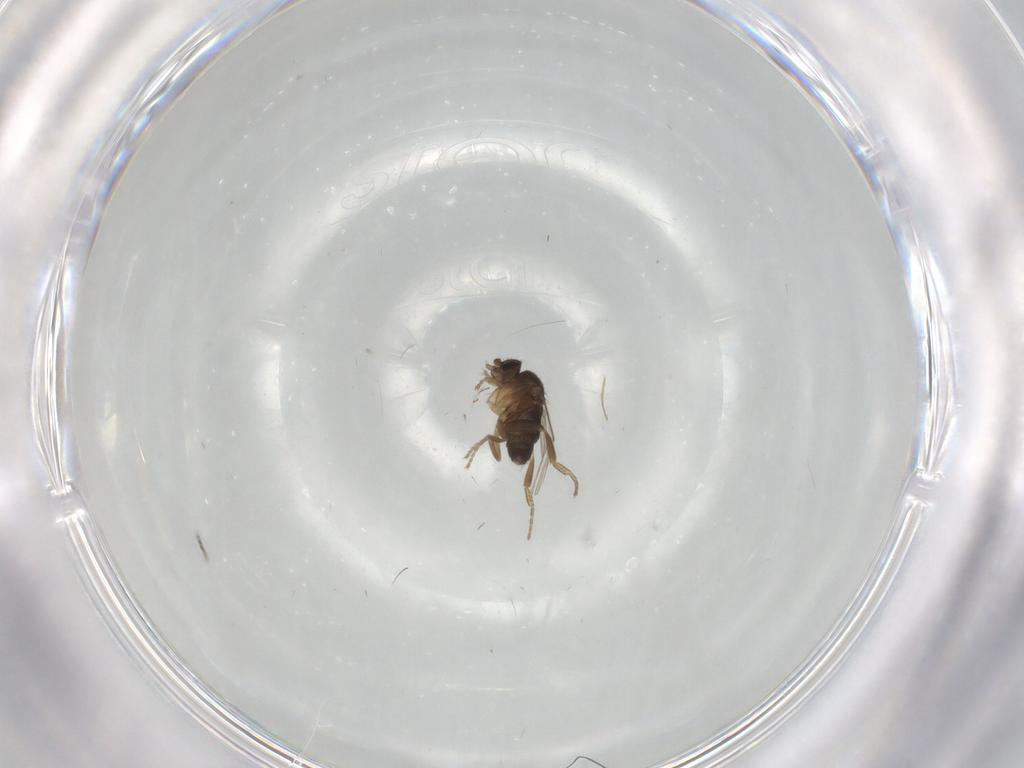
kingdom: Animalia
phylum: Arthropoda
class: Insecta
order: Diptera
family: Phoridae
